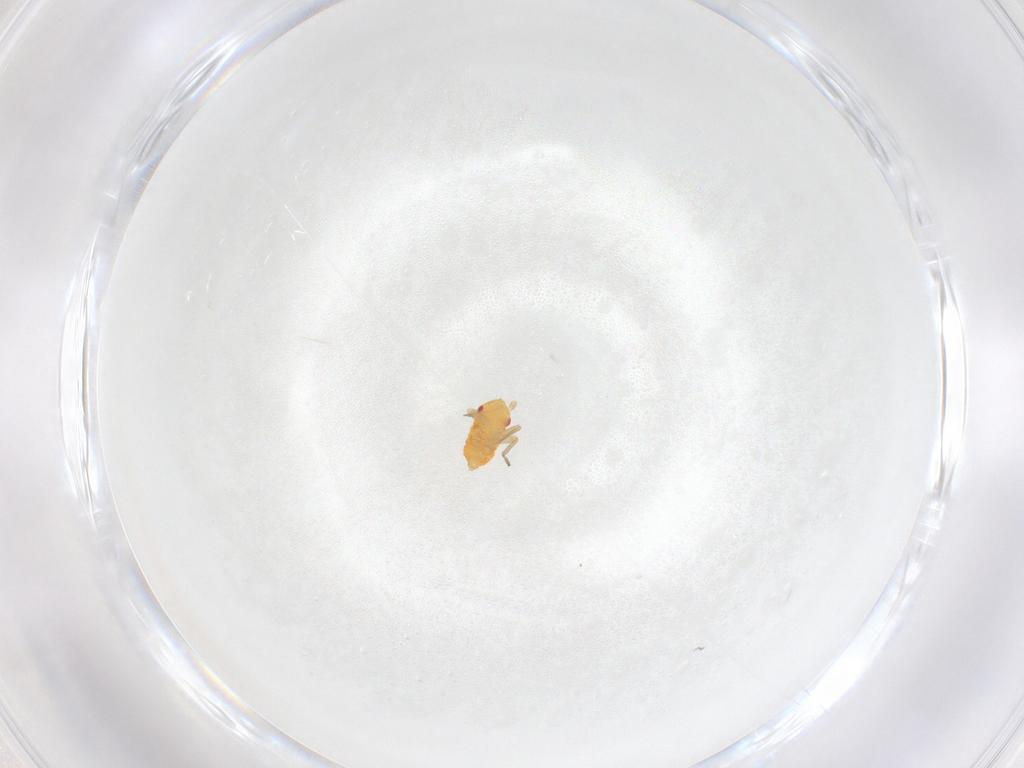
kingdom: Animalia
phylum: Arthropoda
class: Insecta
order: Hemiptera
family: Miridae
